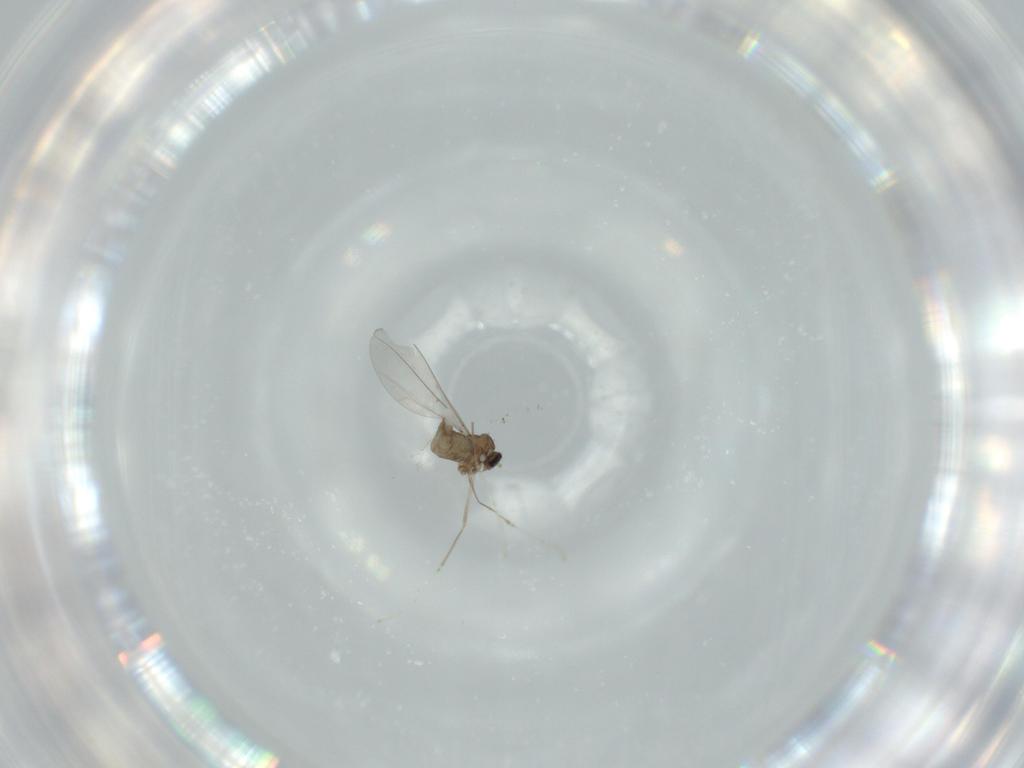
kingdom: Animalia
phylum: Arthropoda
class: Insecta
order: Diptera
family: Cecidomyiidae
